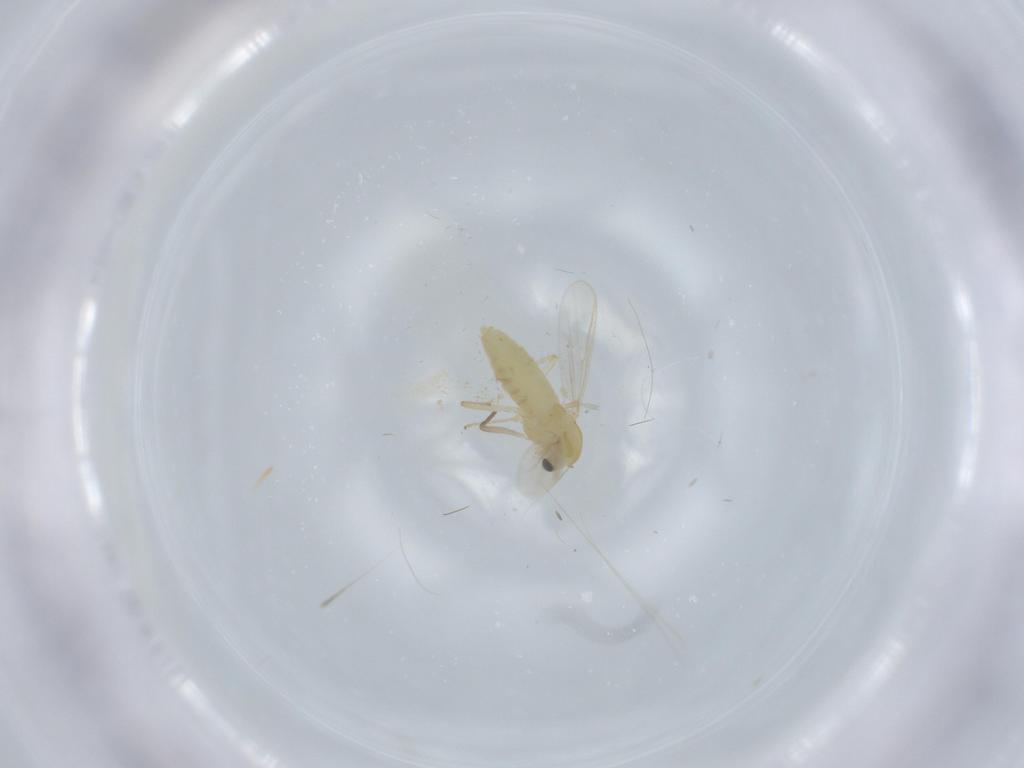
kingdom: Animalia
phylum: Arthropoda
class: Insecta
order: Diptera
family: Chironomidae
